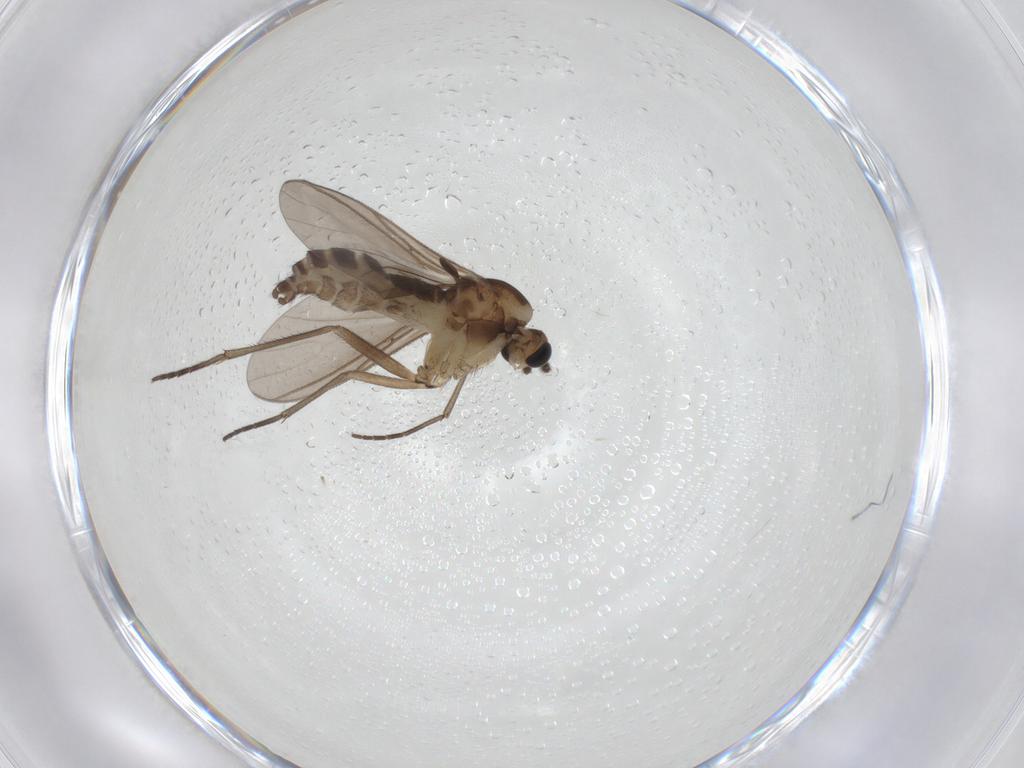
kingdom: Animalia
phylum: Arthropoda
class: Insecta
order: Diptera
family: Sciaridae
